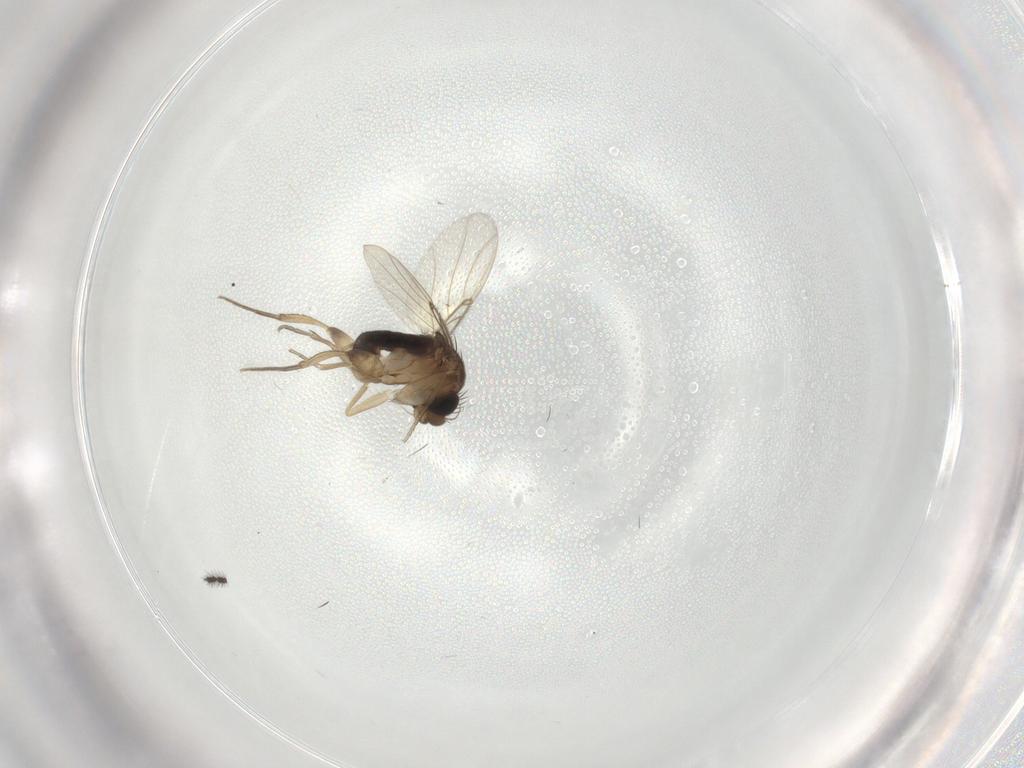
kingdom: Animalia
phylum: Arthropoda
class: Insecta
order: Diptera
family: Phoridae
